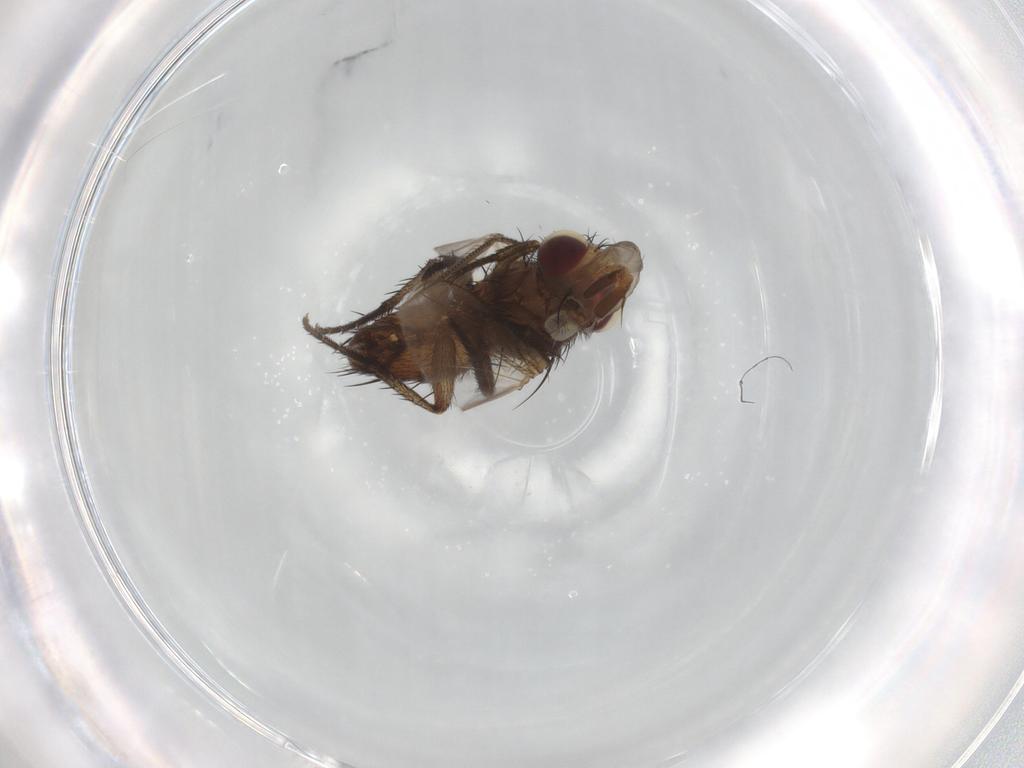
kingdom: Animalia
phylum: Arthropoda
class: Insecta
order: Diptera
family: Tachinidae
